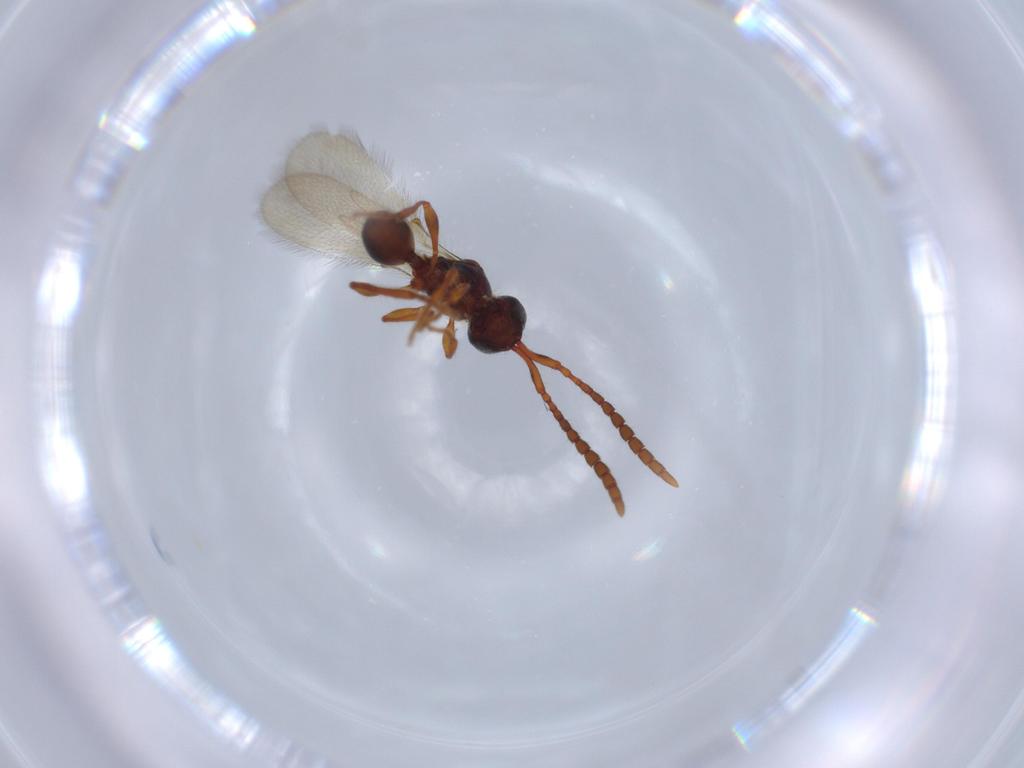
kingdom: Animalia
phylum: Arthropoda
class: Insecta
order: Hymenoptera
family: Diapriidae
